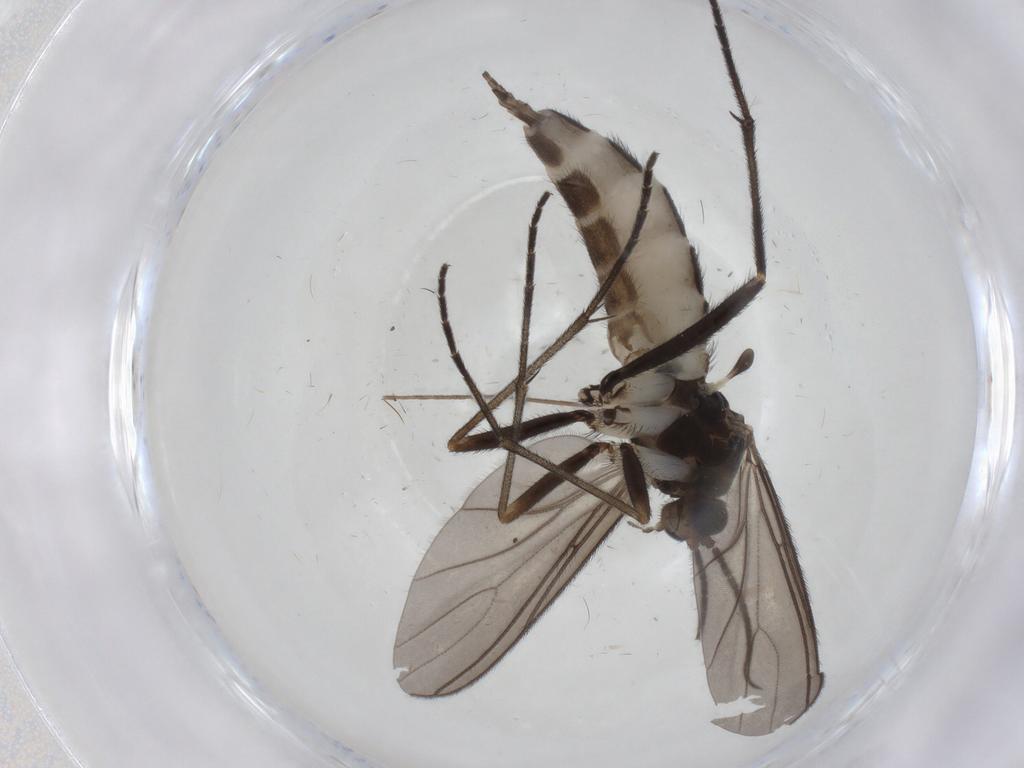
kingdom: Animalia
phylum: Arthropoda
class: Insecta
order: Diptera
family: Sciaridae
